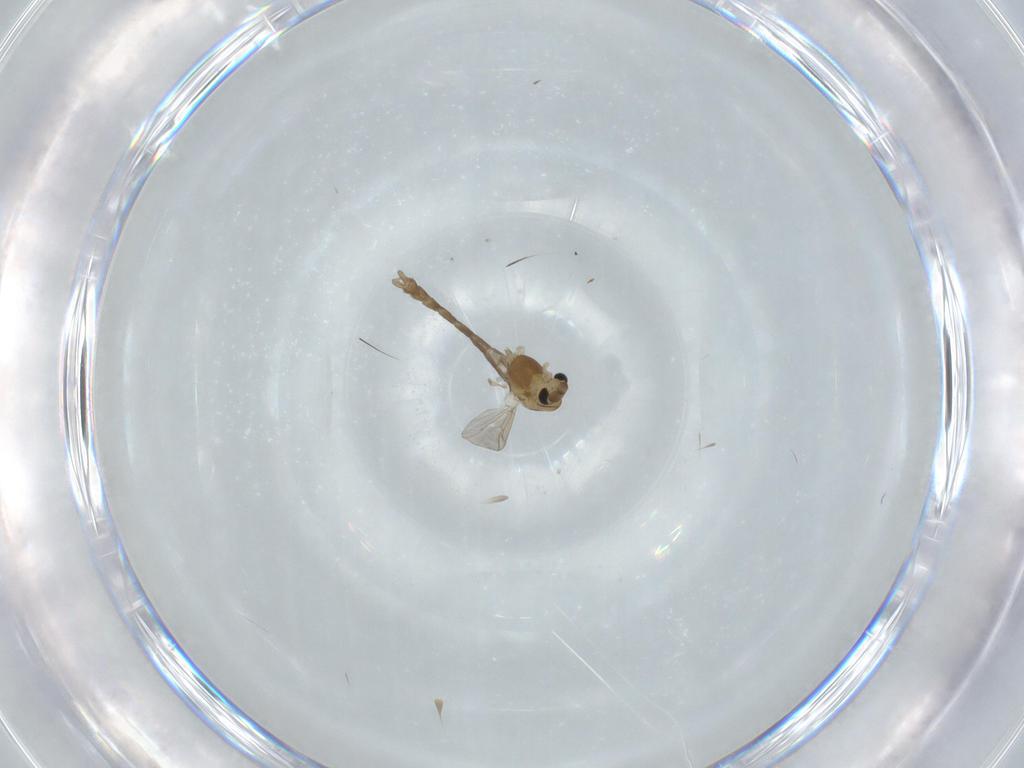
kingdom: Animalia
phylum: Arthropoda
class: Insecta
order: Diptera
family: Chironomidae
